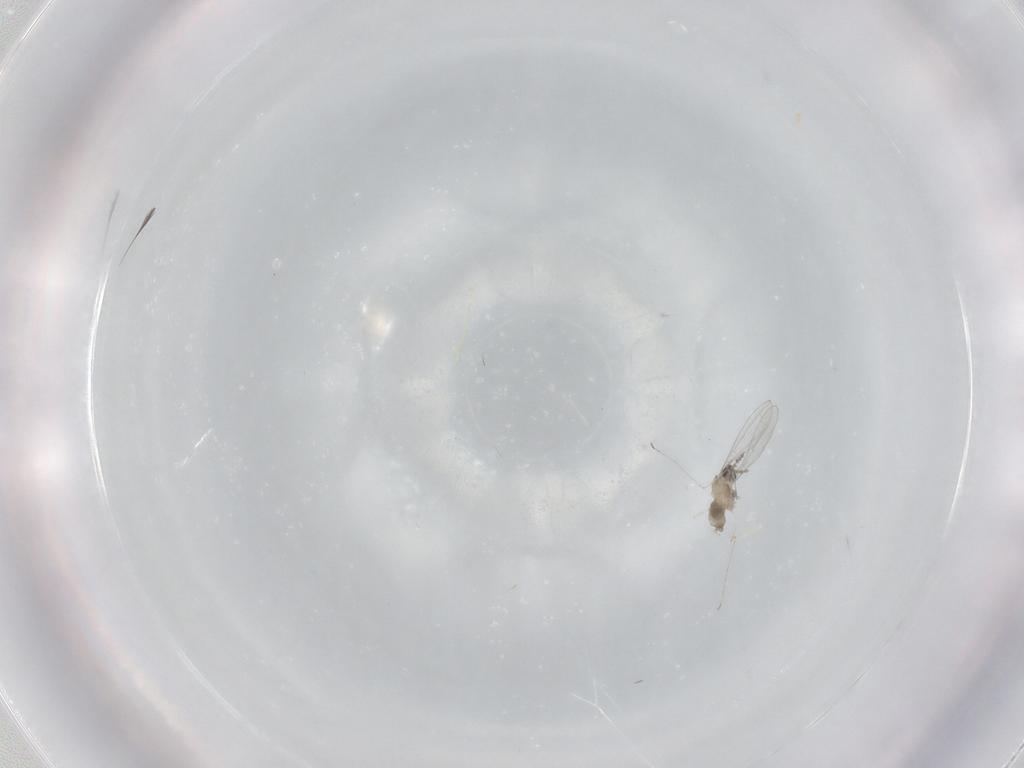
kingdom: Animalia
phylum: Arthropoda
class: Insecta
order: Diptera
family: Cecidomyiidae
